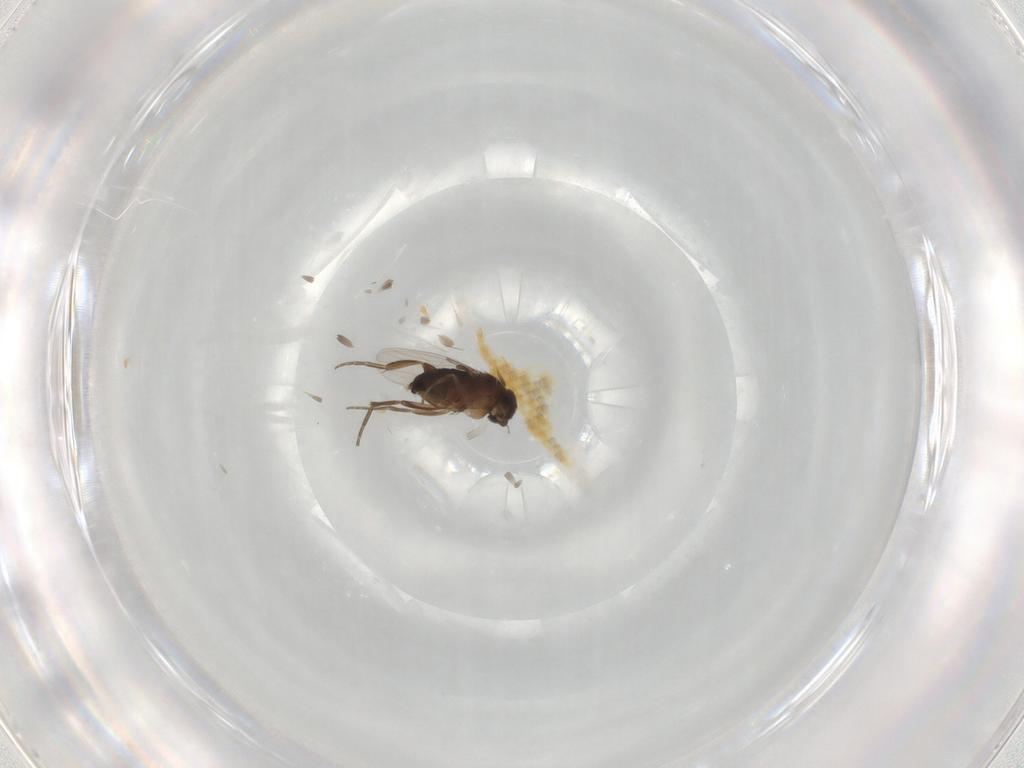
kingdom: Animalia
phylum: Arthropoda
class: Insecta
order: Diptera
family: Phoridae
